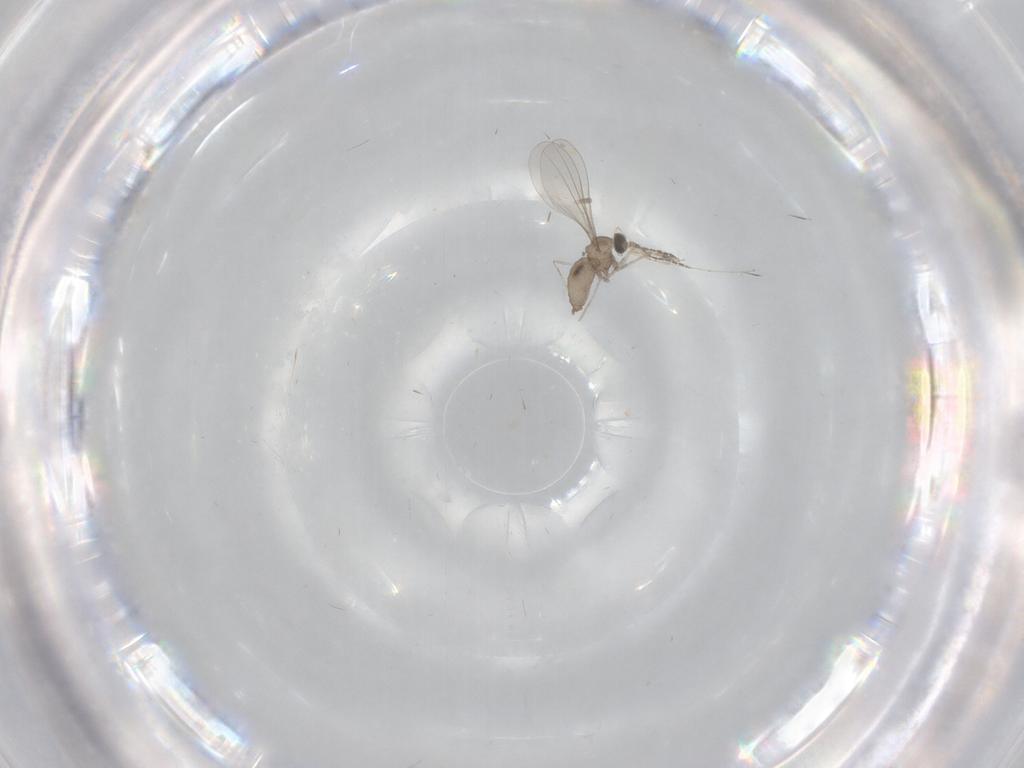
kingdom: Animalia
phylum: Arthropoda
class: Insecta
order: Diptera
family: Cecidomyiidae
